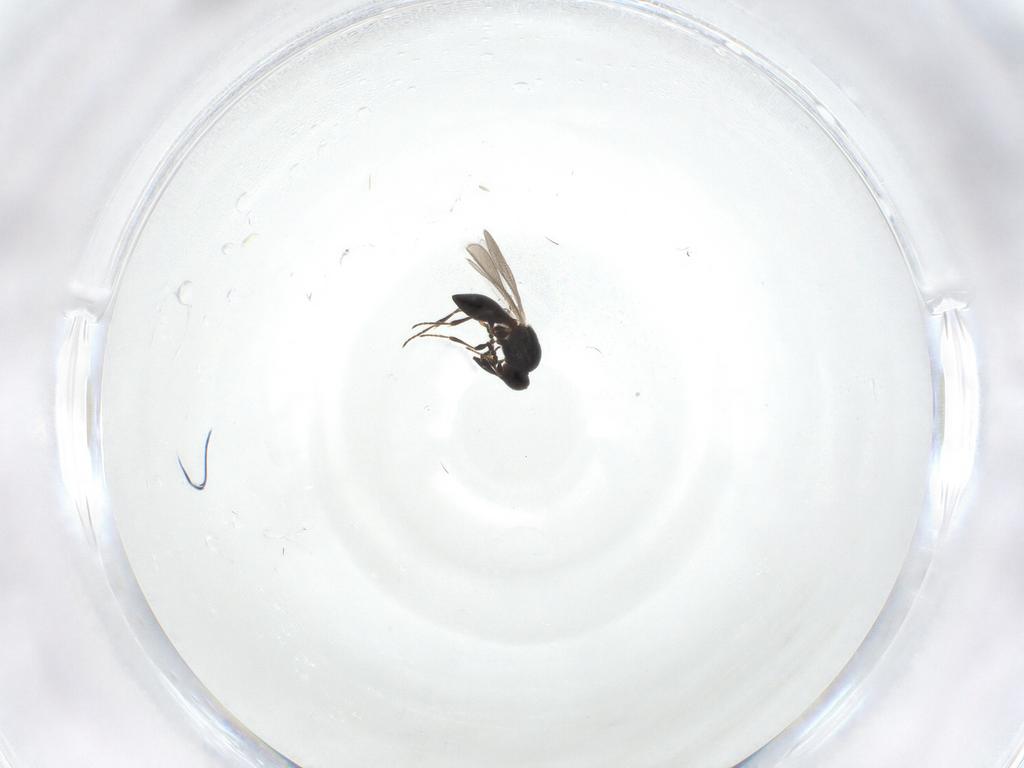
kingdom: Animalia
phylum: Arthropoda
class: Insecta
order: Hymenoptera
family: Platygastridae
